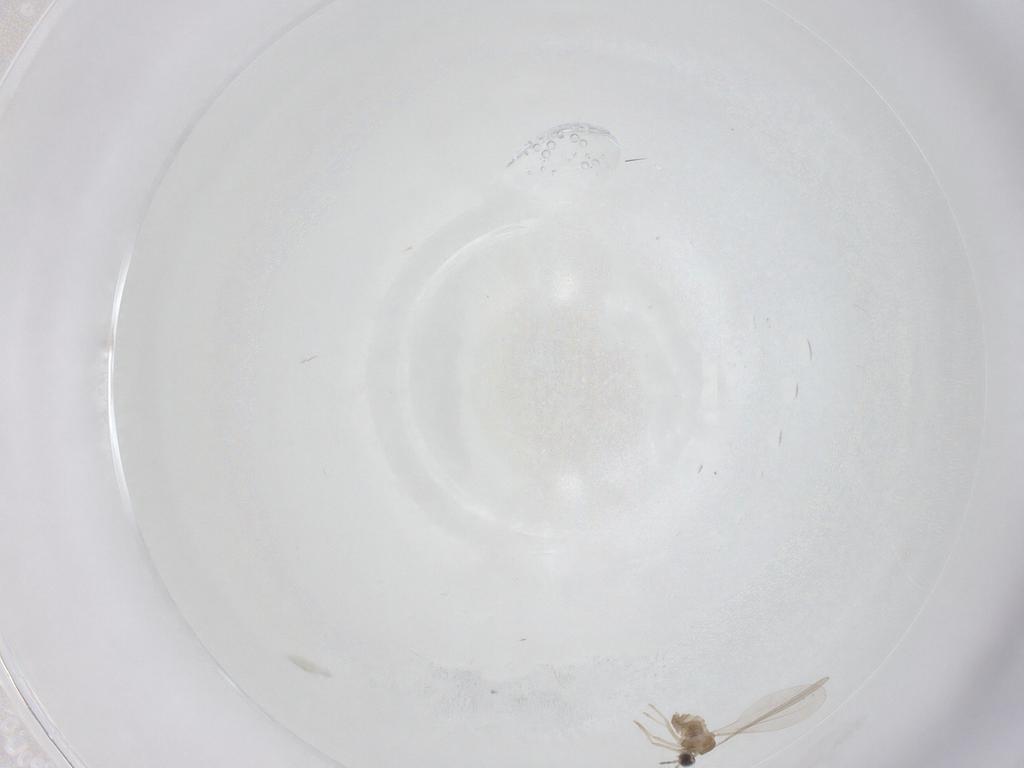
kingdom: Animalia
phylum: Arthropoda
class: Insecta
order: Diptera
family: Cecidomyiidae
